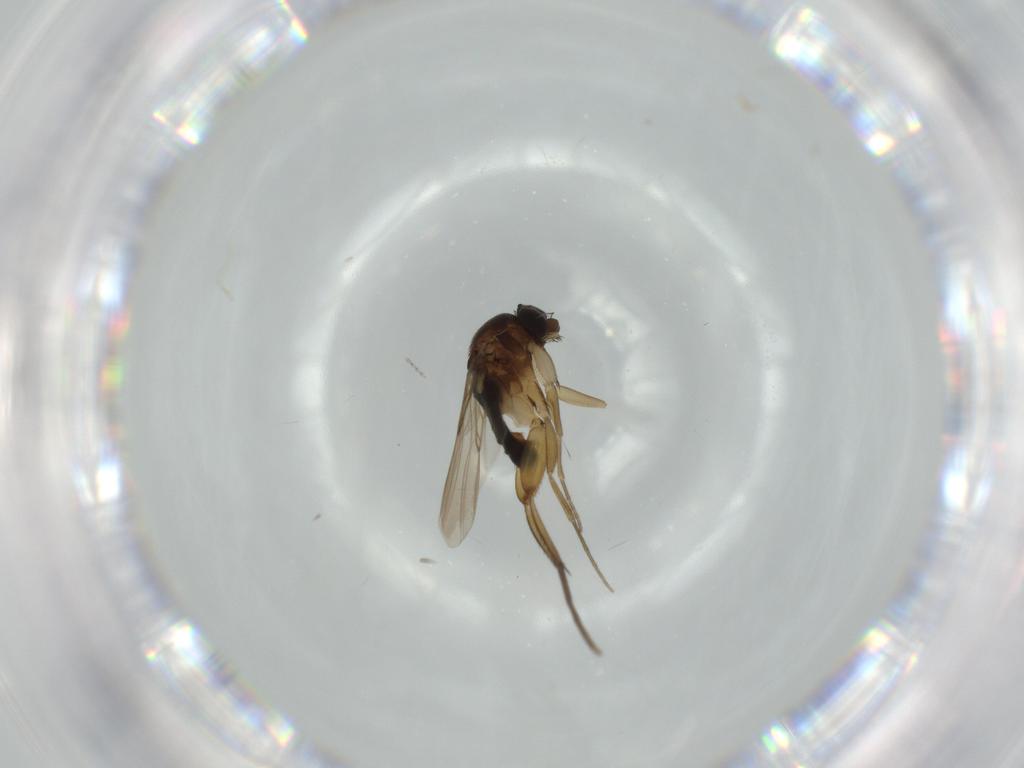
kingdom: Animalia
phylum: Arthropoda
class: Insecta
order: Diptera
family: Phoridae
